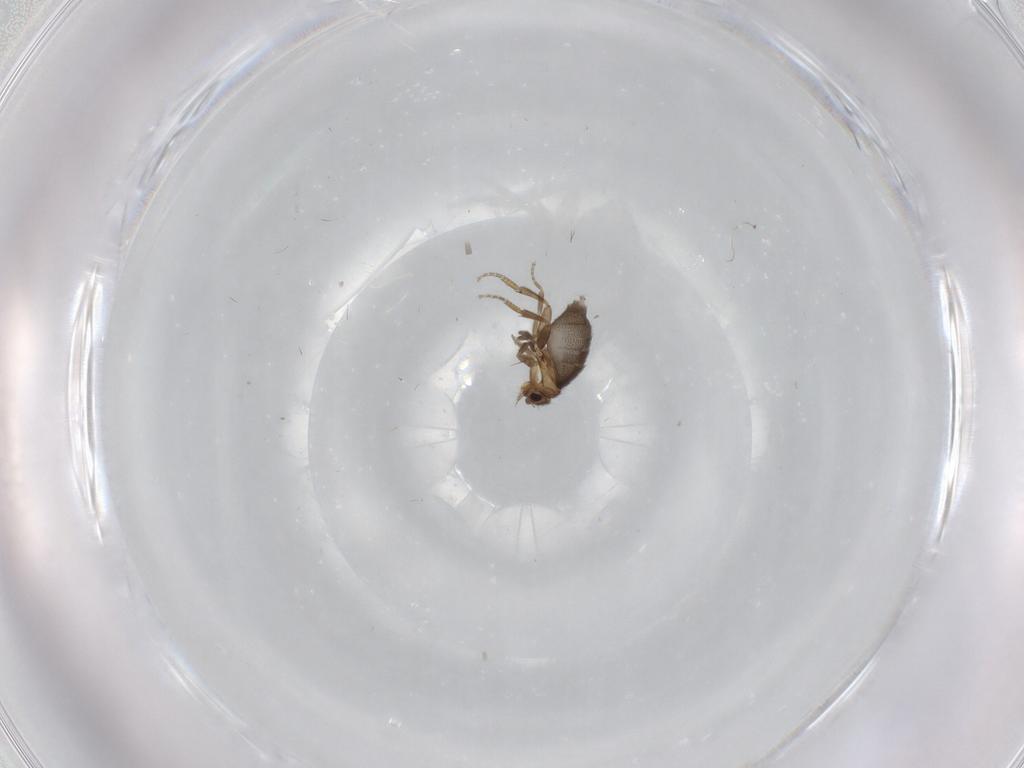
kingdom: Animalia
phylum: Arthropoda
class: Insecta
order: Diptera
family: Cecidomyiidae
